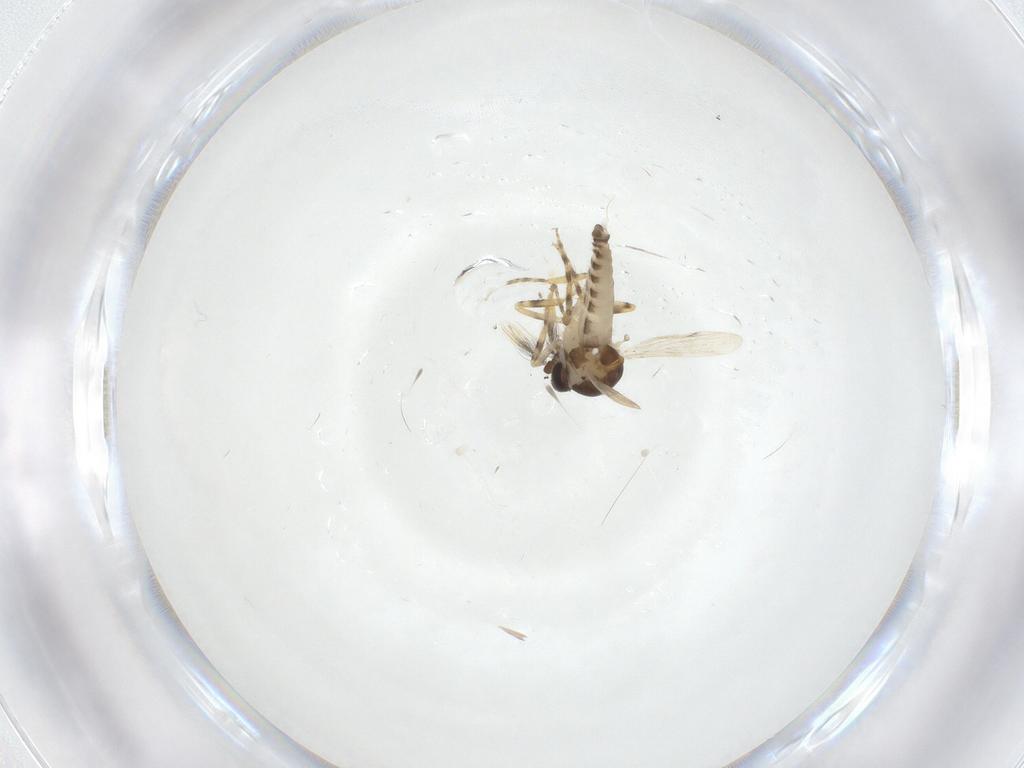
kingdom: Animalia
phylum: Arthropoda
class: Insecta
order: Diptera
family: Ceratopogonidae
